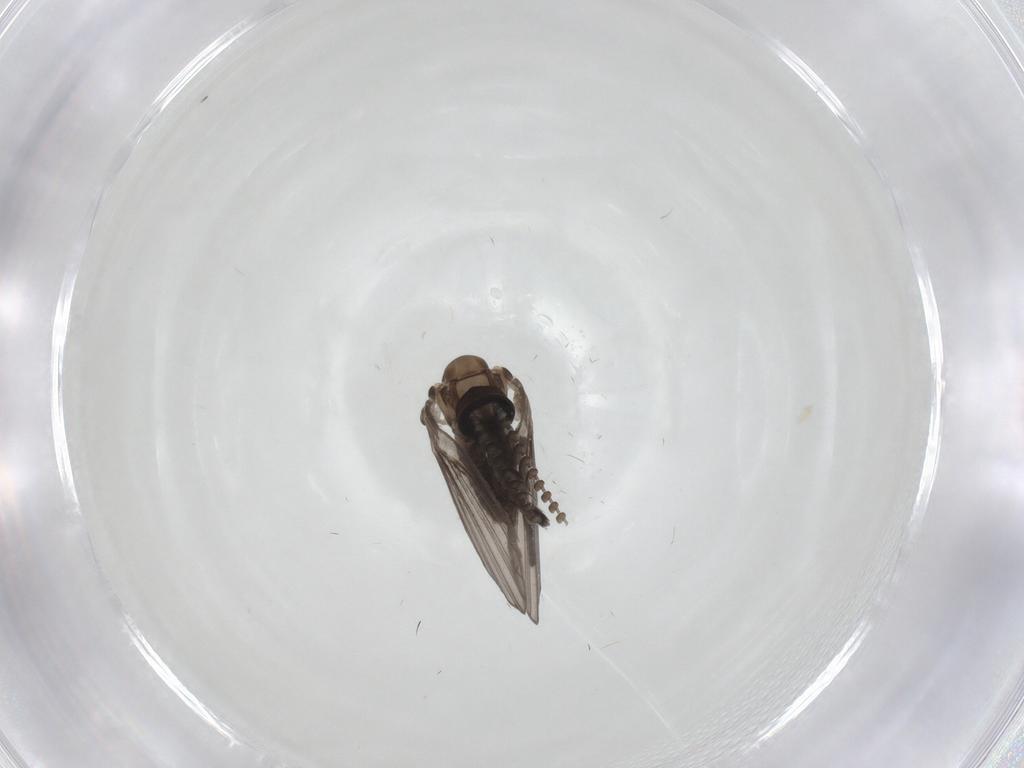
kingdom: Animalia
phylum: Arthropoda
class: Insecta
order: Diptera
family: Psychodidae
